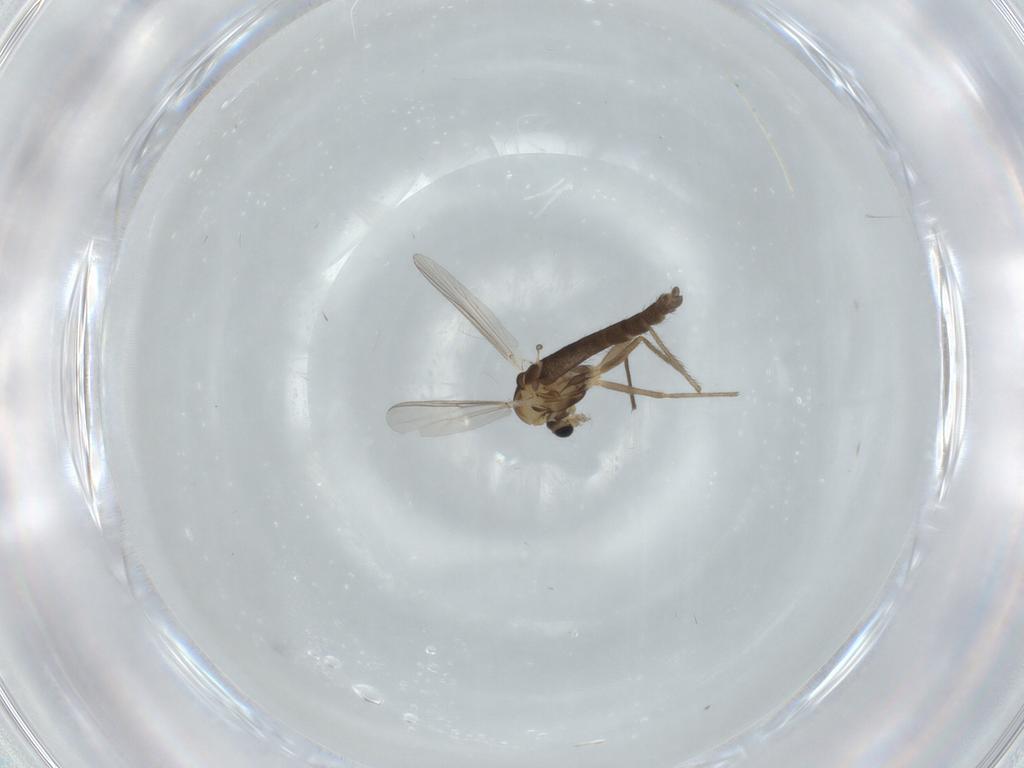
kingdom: Animalia
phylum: Arthropoda
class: Insecta
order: Diptera
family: Chironomidae
